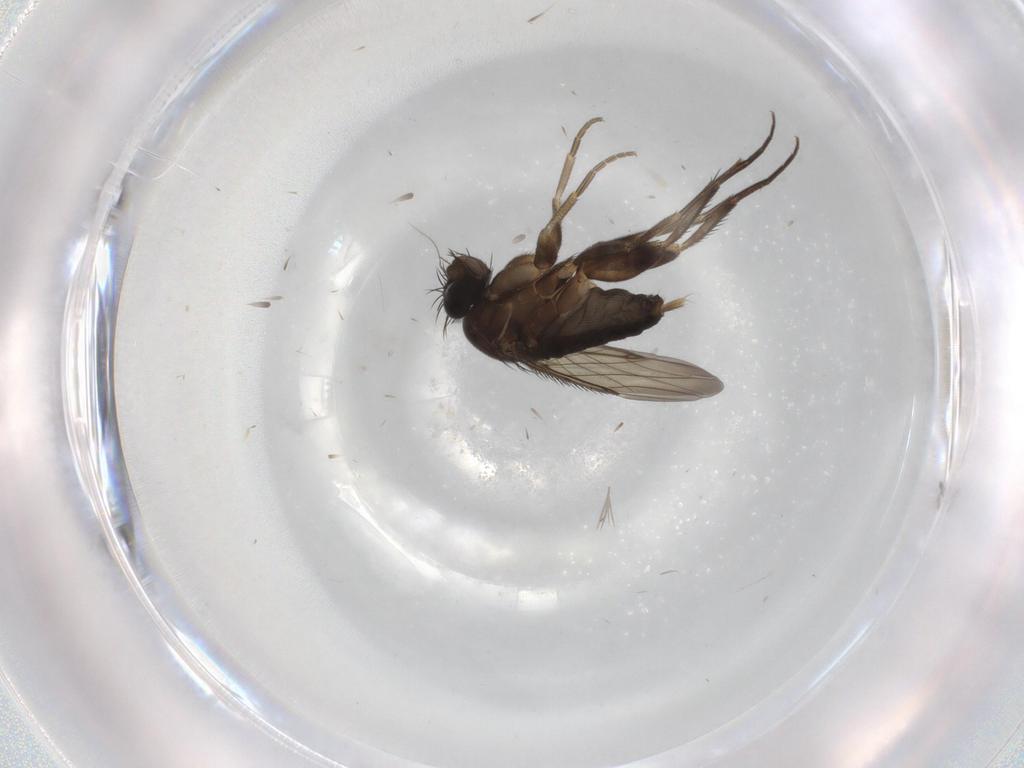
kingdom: Animalia
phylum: Arthropoda
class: Insecta
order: Diptera
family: Phoridae
